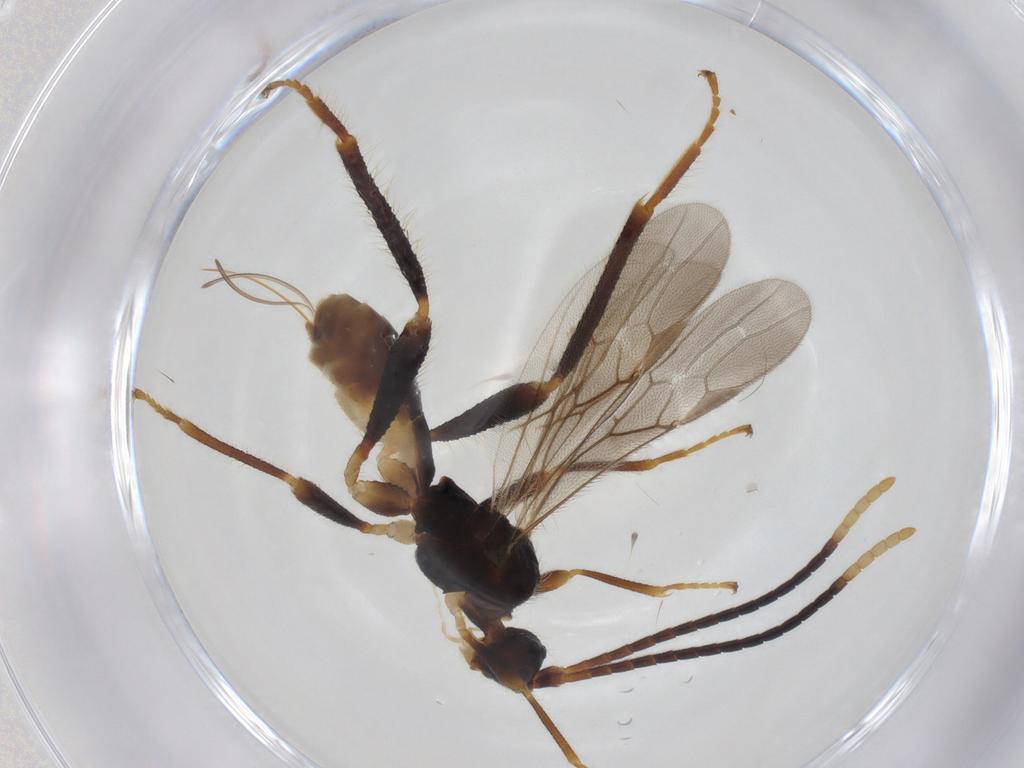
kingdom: Animalia
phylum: Arthropoda
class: Insecta
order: Hymenoptera
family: Braconidae
